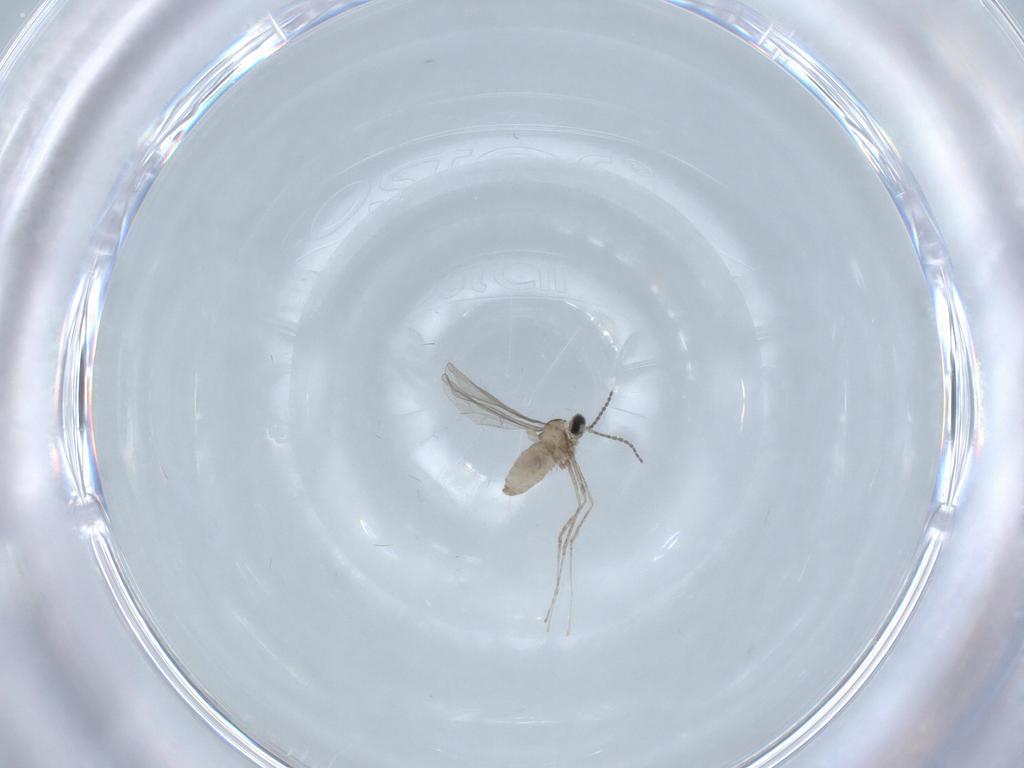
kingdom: Animalia
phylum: Arthropoda
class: Insecta
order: Diptera
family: Cecidomyiidae
